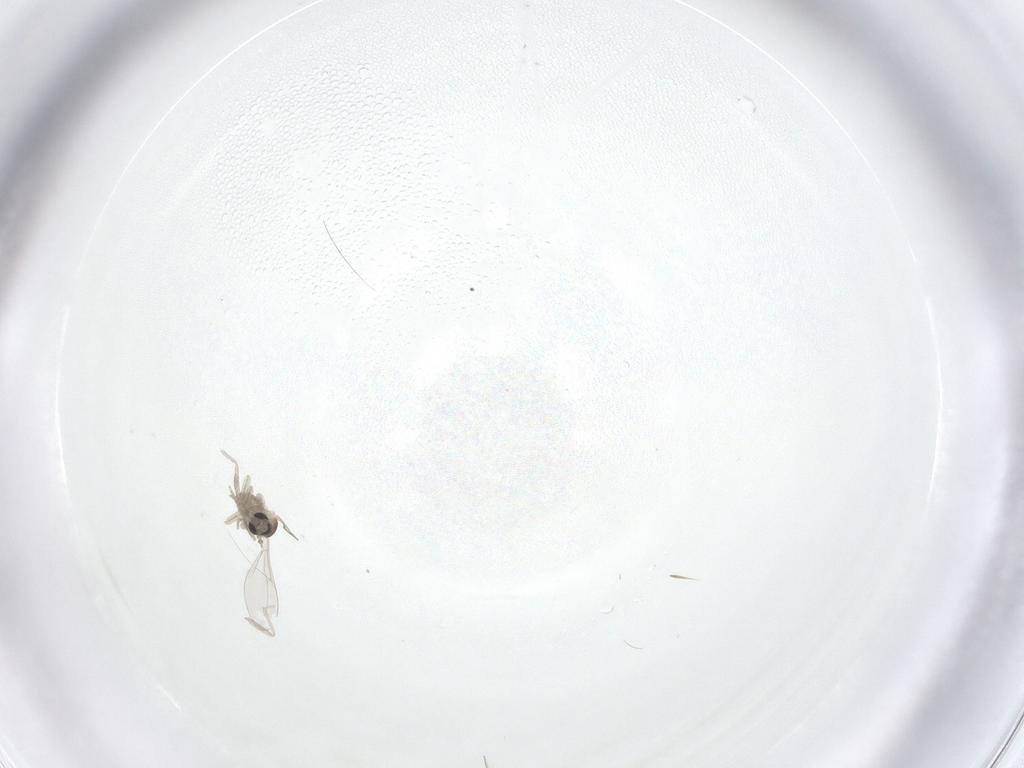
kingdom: Animalia
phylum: Arthropoda
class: Insecta
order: Diptera
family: Cecidomyiidae
